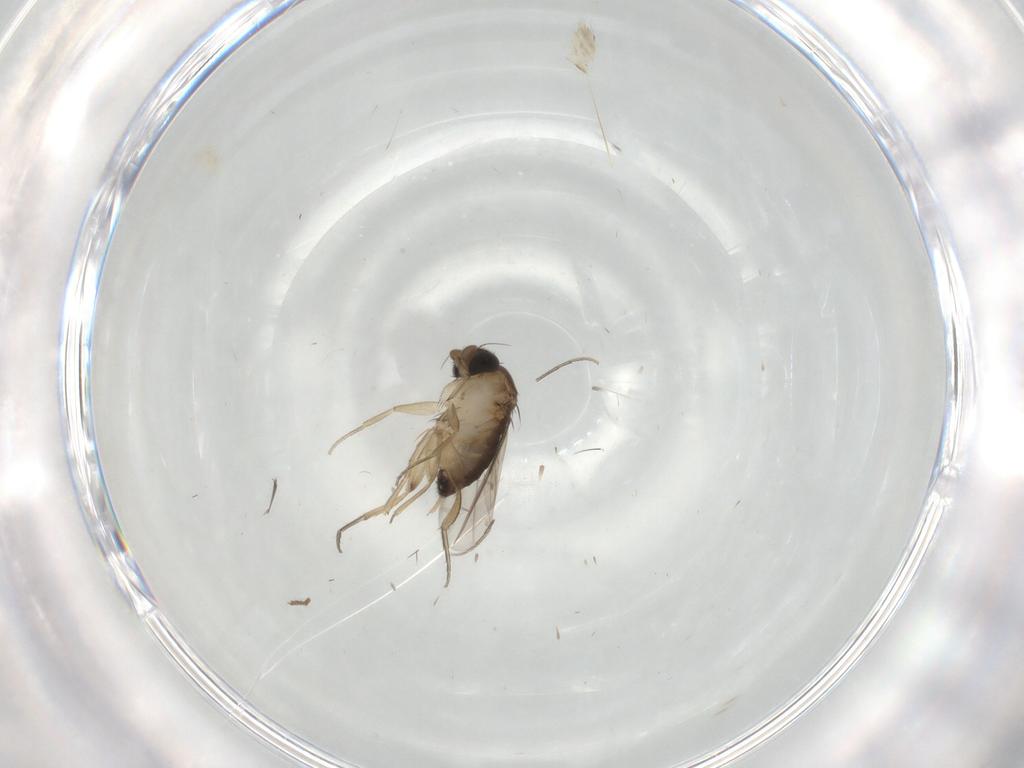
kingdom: Animalia
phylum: Arthropoda
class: Insecta
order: Diptera
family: Phoridae
